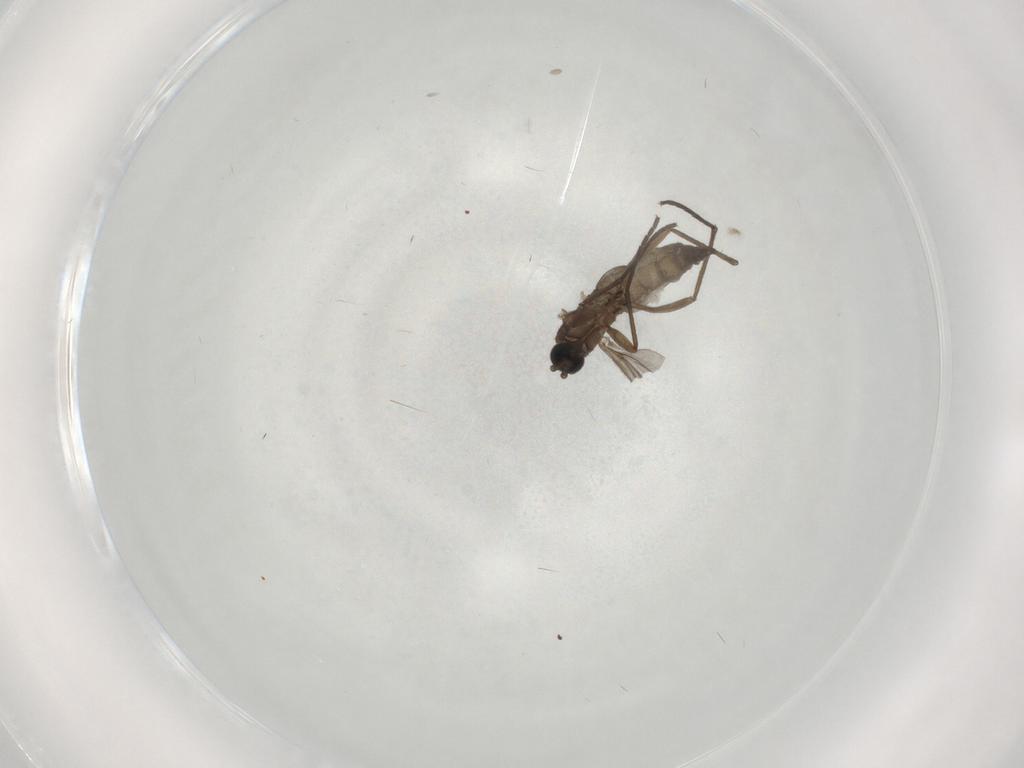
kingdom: Animalia
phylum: Arthropoda
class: Insecta
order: Diptera
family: Sciaridae
